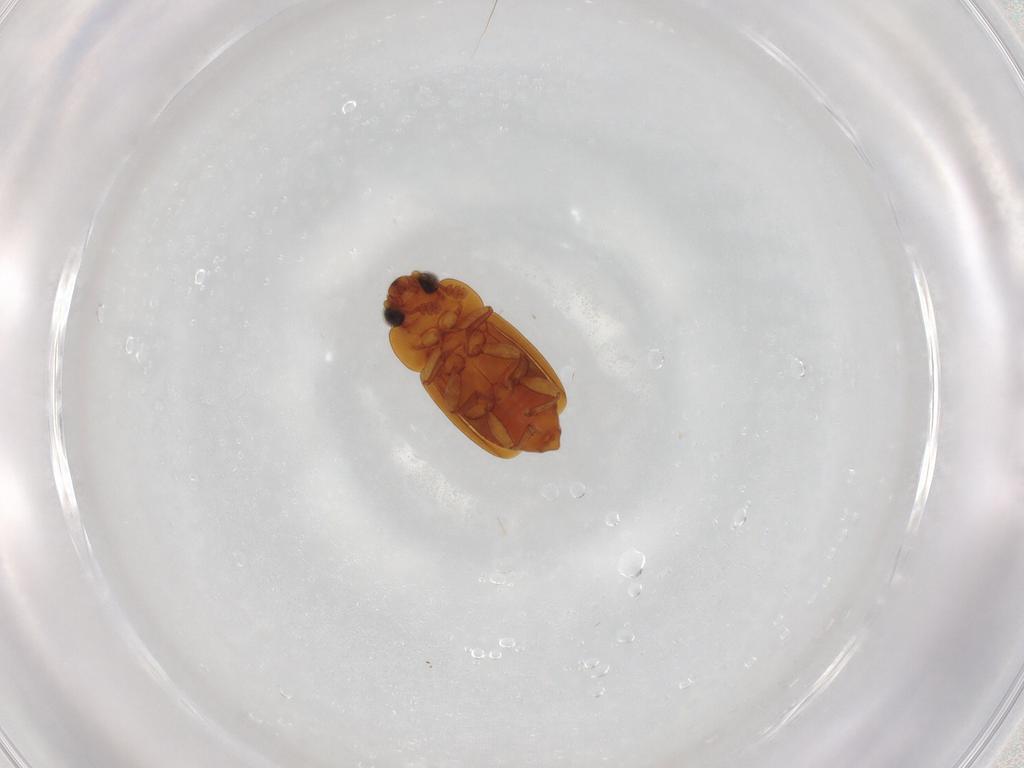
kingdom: Animalia
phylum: Arthropoda
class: Insecta
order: Coleoptera
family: Nitidulidae
